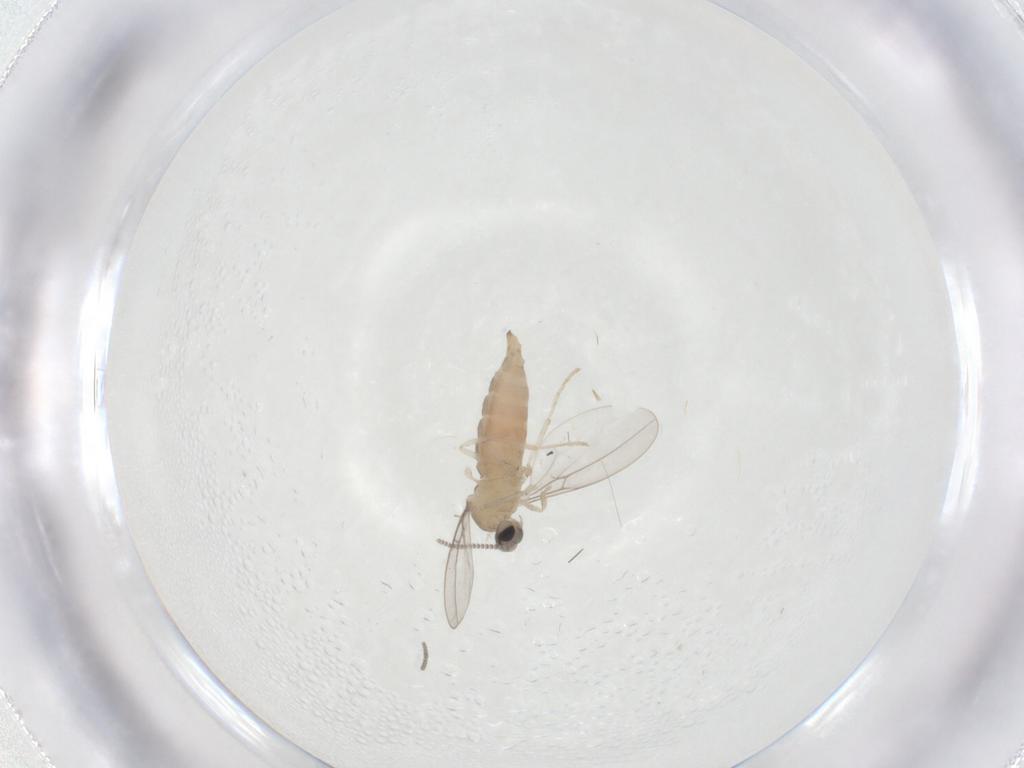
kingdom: Animalia
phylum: Arthropoda
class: Insecta
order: Diptera
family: Cecidomyiidae
